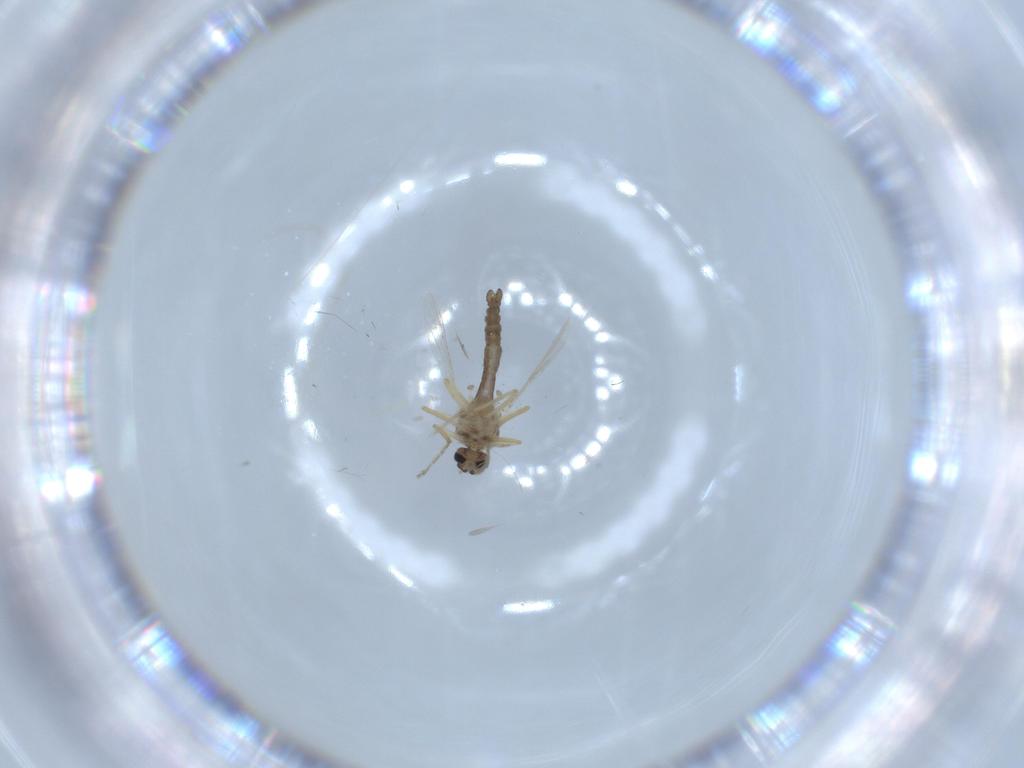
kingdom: Animalia
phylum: Arthropoda
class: Insecta
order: Diptera
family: Ceratopogonidae
